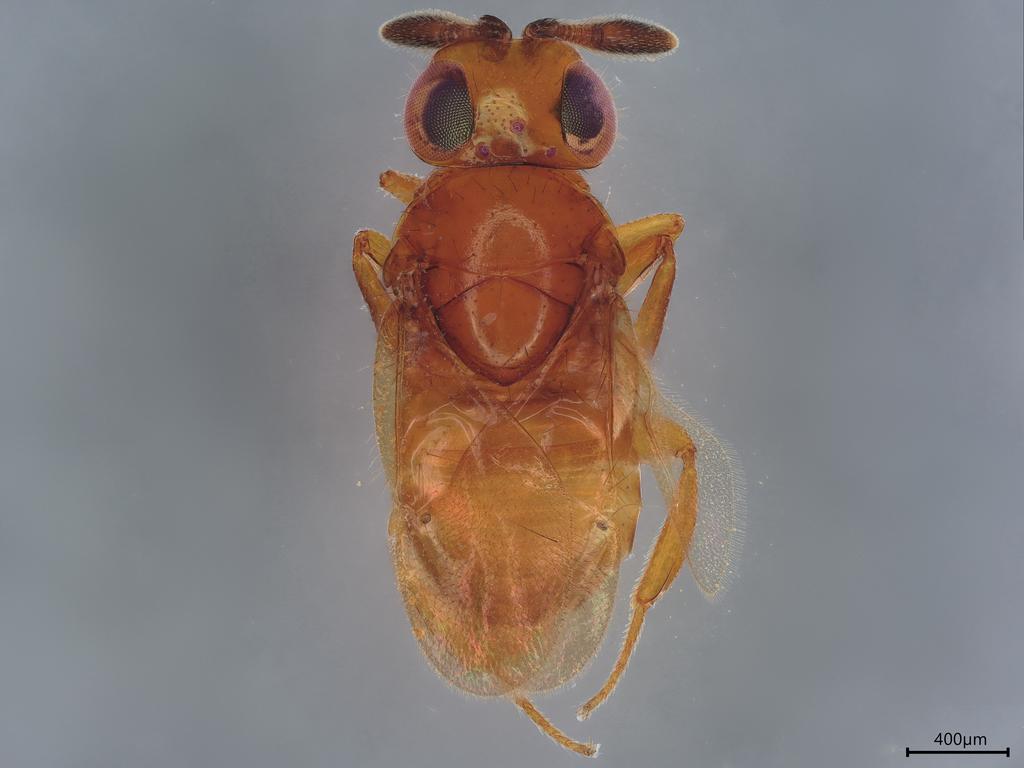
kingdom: Animalia
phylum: Arthropoda
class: Insecta
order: Hymenoptera
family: Encyrtidae
